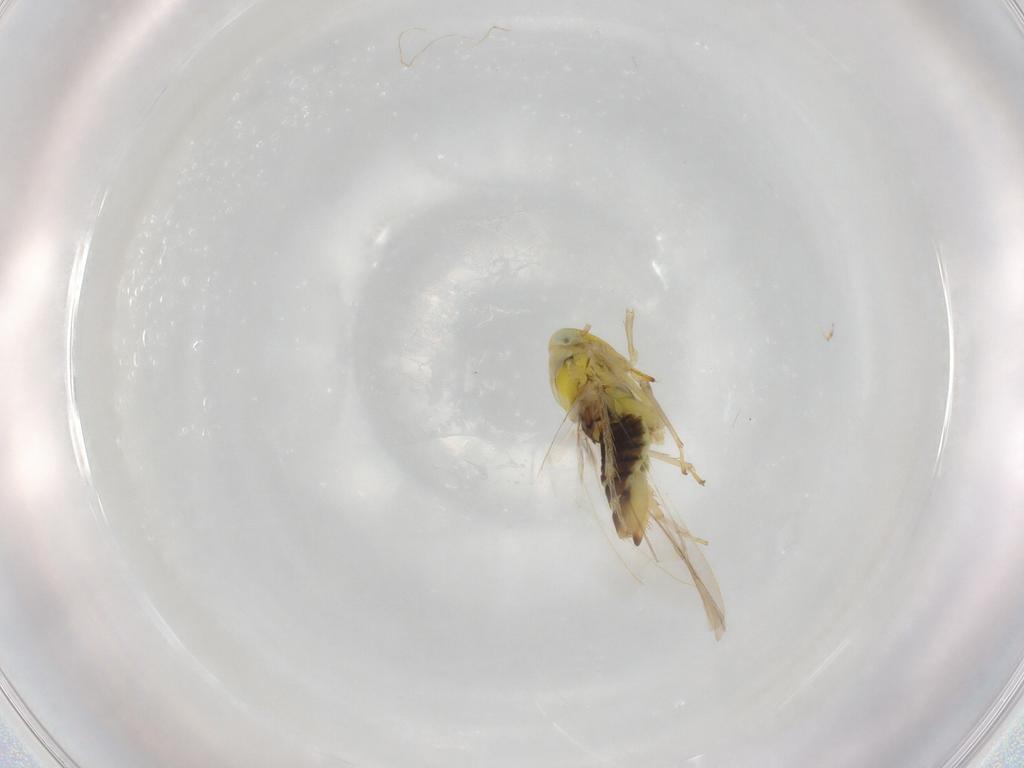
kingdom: Animalia
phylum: Arthropoda
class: Insecta
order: Hemiptera
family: Cicadellidae
